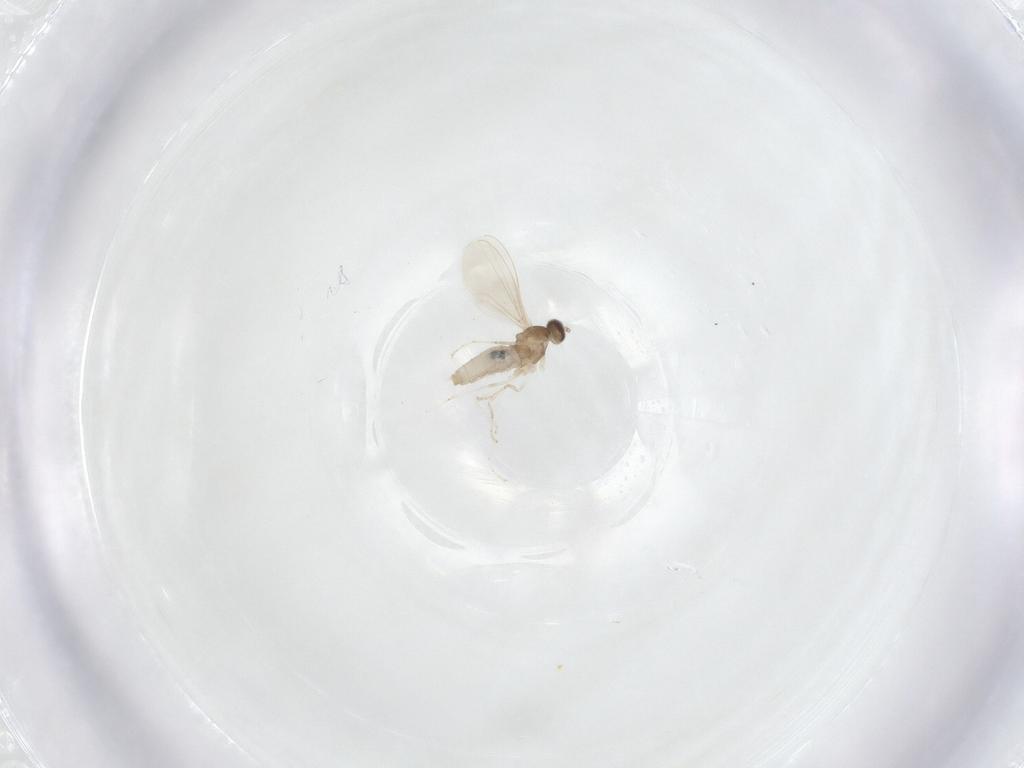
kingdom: Animalia
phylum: Arthropoda
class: Insecta
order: Diptera
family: Cecidomyiidae
